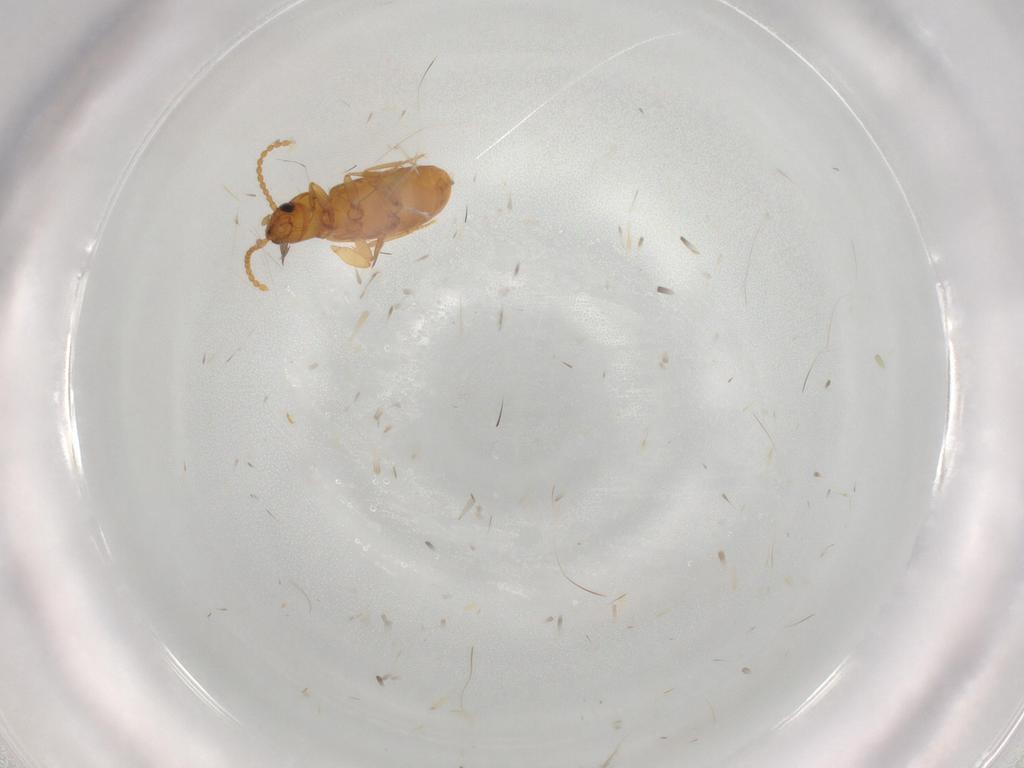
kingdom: Animalia
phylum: Arthropoda
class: Insecta
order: Coleoptera
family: Carabidae
